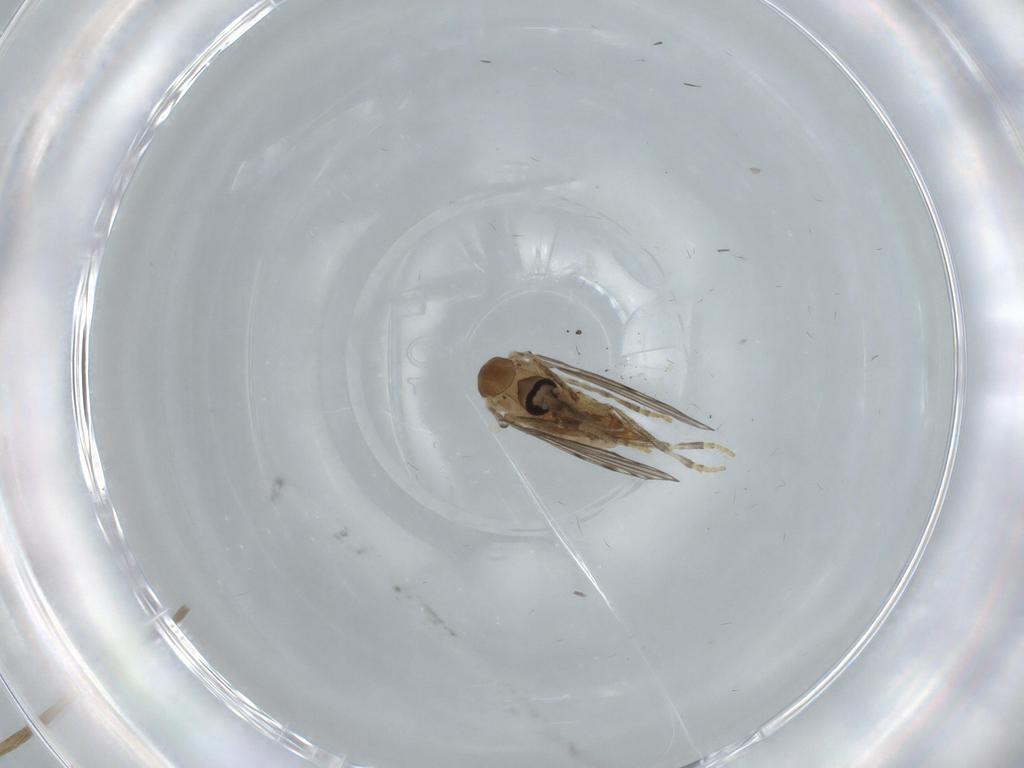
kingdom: Animalia
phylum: Arthropoda
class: Insecta
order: Diptera
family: Psychodidae
